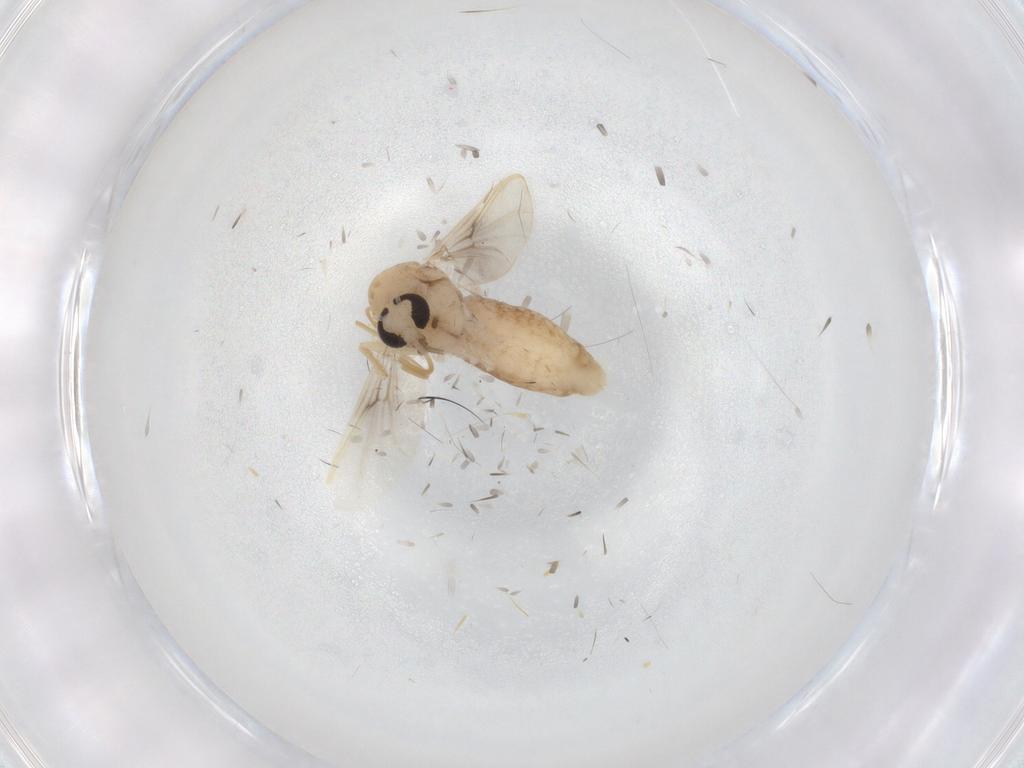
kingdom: Animalia
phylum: Arthropoda
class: Insecta
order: Diptera
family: Chironomidae
